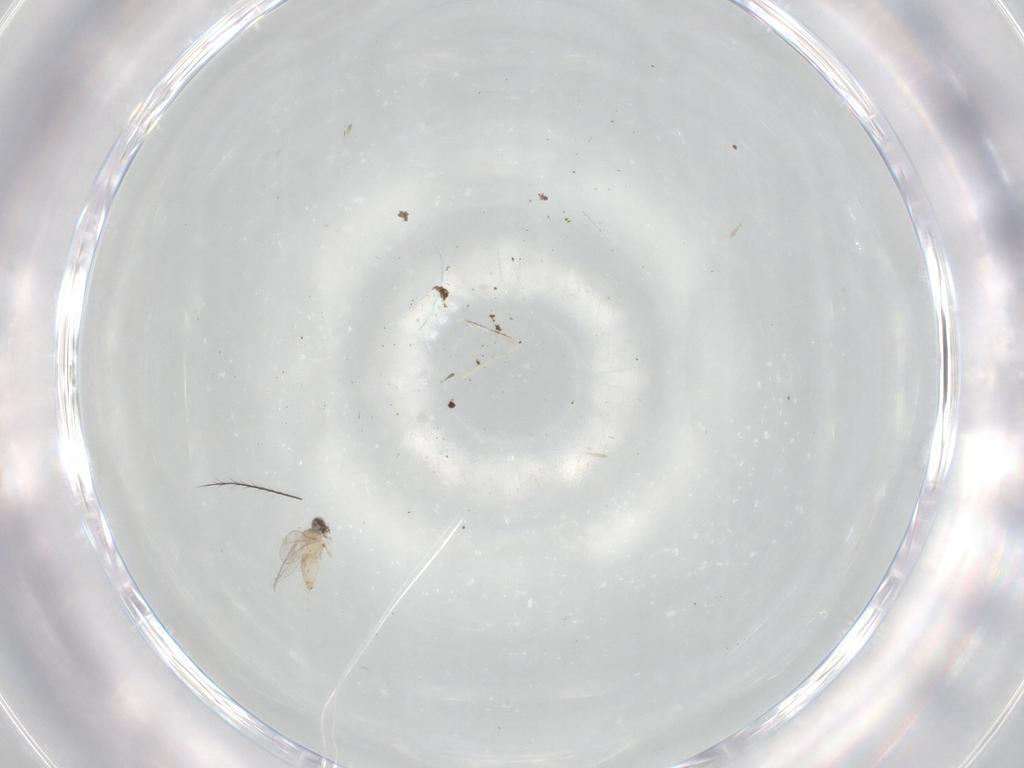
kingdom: Animalia
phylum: Arthropoda
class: Insecta
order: Diptera
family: Cecidomyiidae
